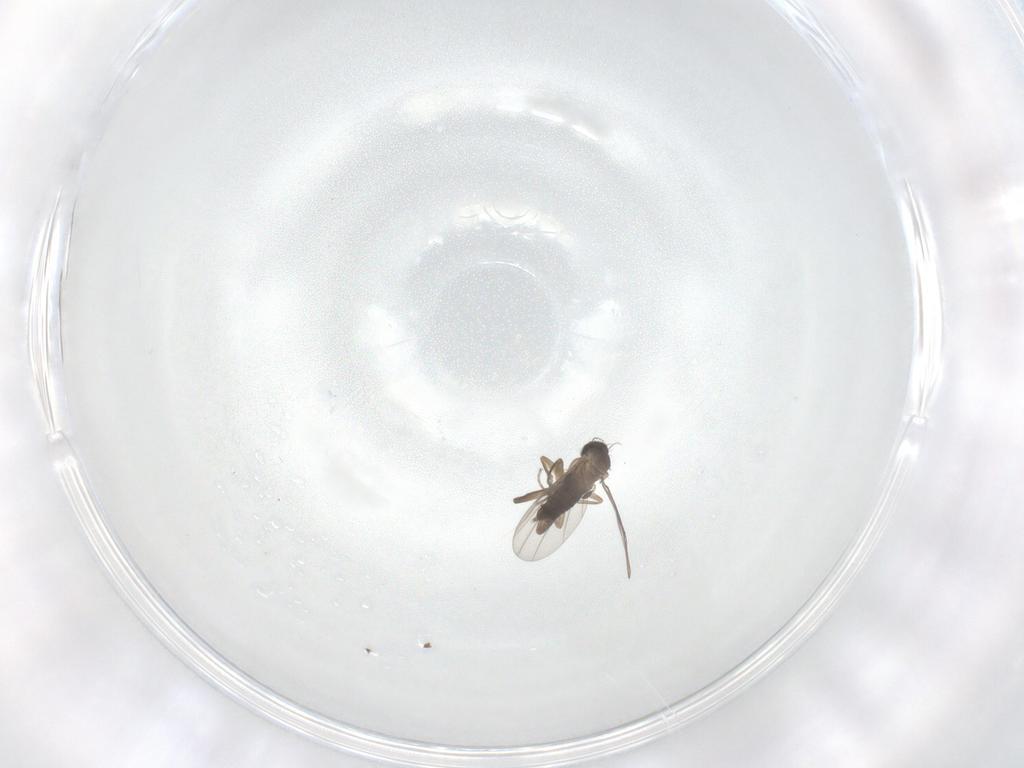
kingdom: Animalia
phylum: Arthropoda
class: Insecta
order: Diptera
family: Phoridae
